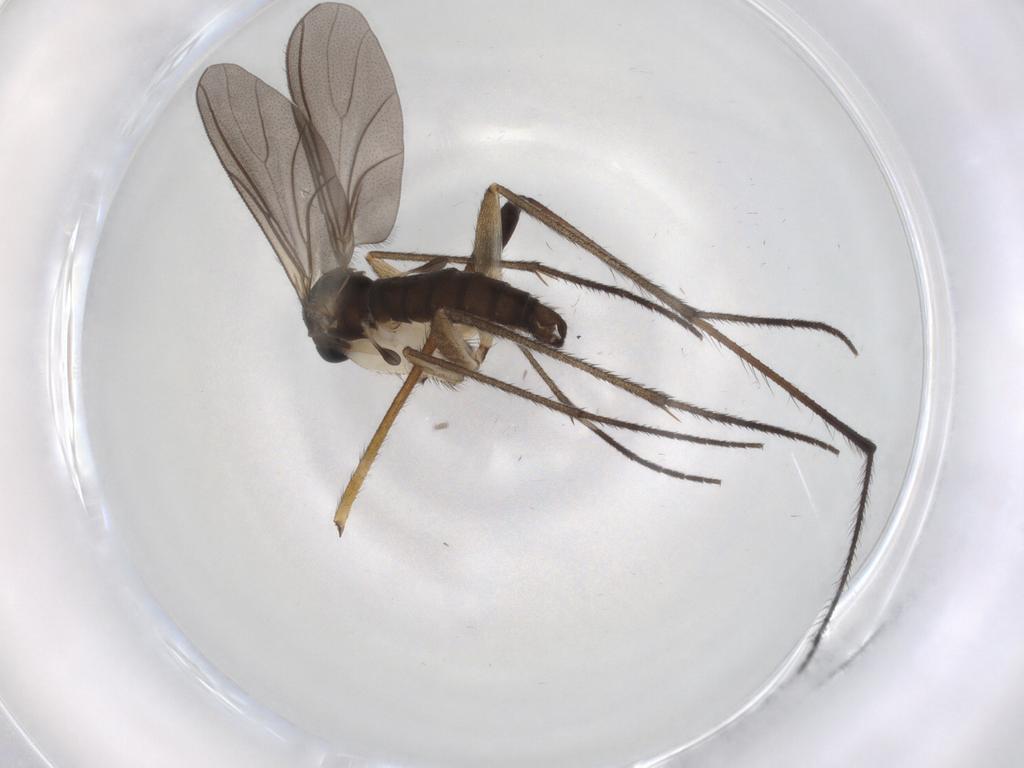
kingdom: Animalia
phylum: Arthropoda
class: Insecta
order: Diptera
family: Sciaridae
